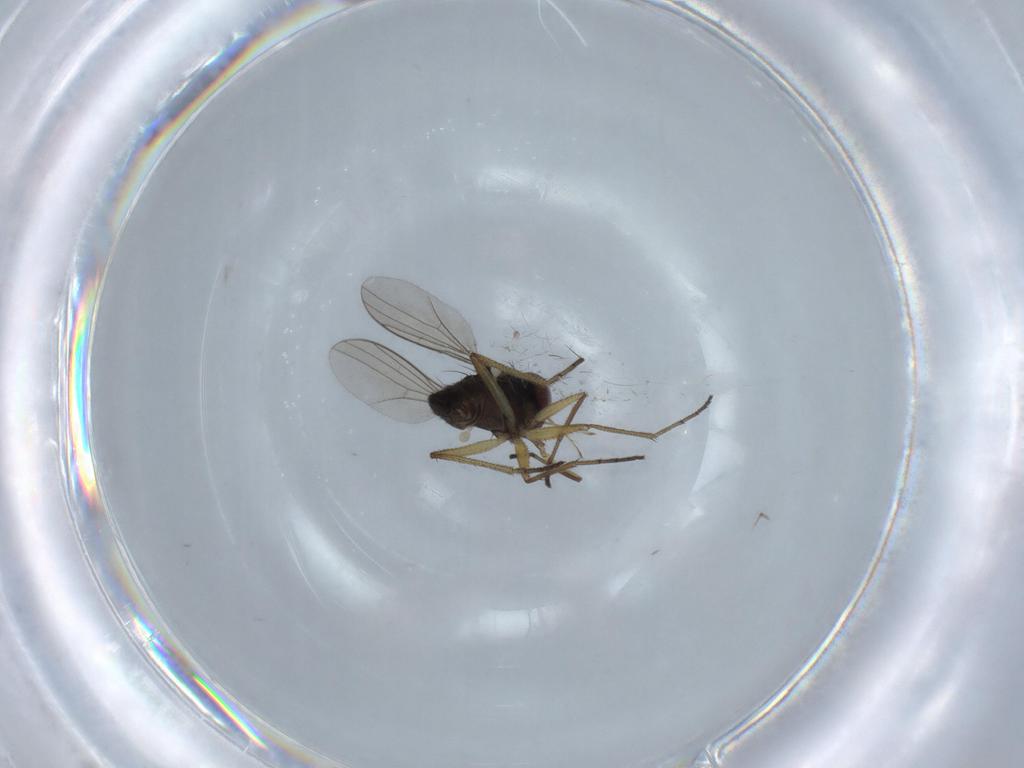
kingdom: Animalia
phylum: Arthropoda
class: Insecta
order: Diptera
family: Dolichopodidae
